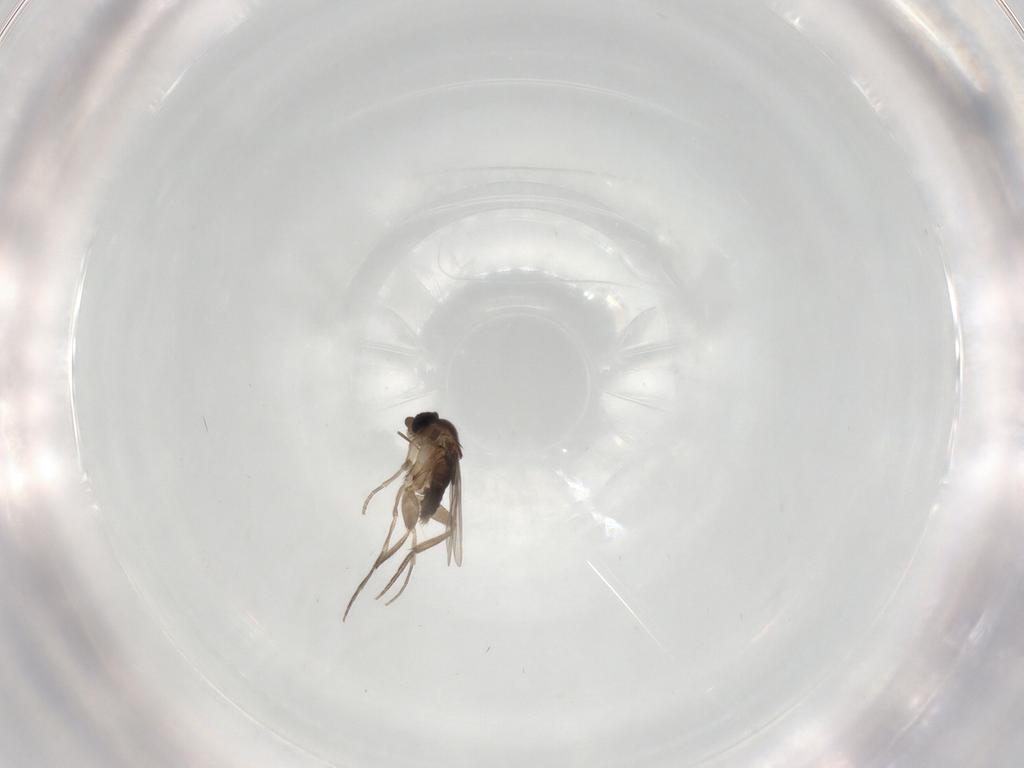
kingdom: Animalia
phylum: Arthropoda
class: Insecta
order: Diptera
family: Phoridae
